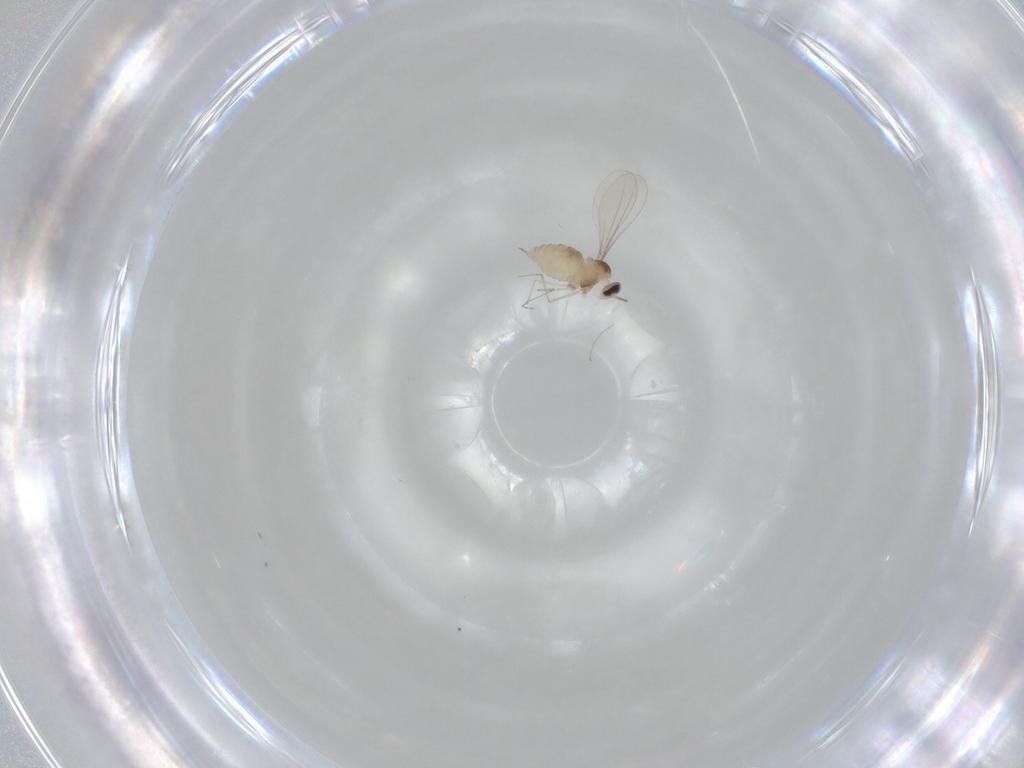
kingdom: Animalia
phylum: Arthropoda
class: Insecta
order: Diptera
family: Cecidomyiidae
